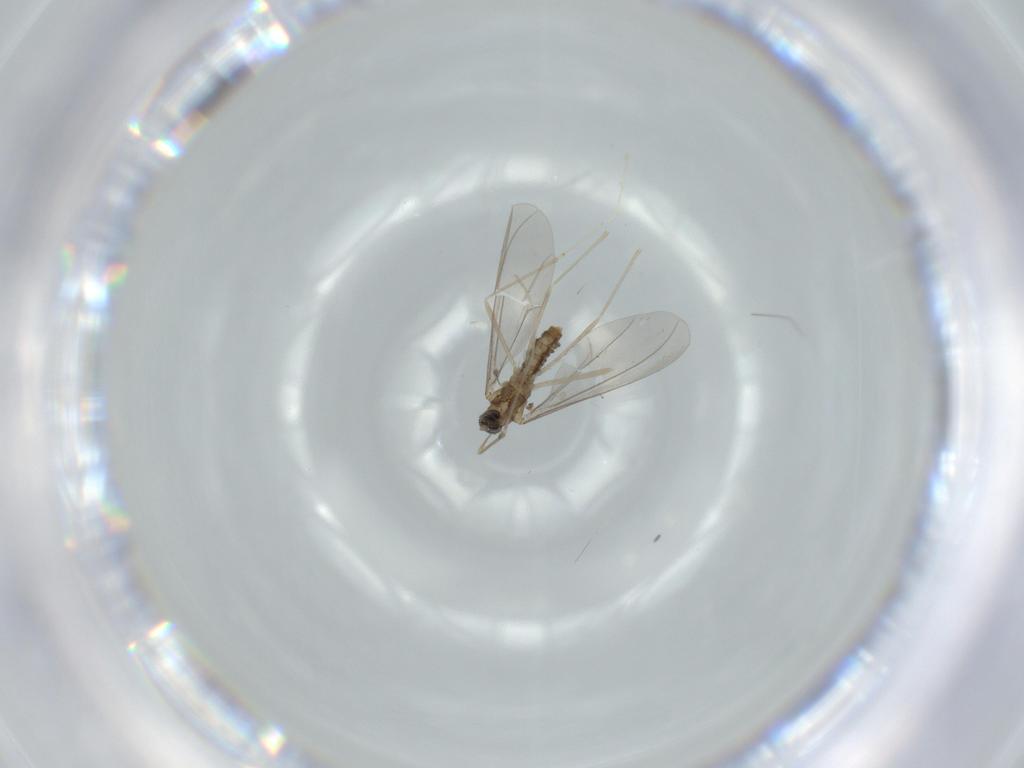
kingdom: Animalia
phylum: Arthropoda
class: Insecta
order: Diptera
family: Cecidomyiidae
